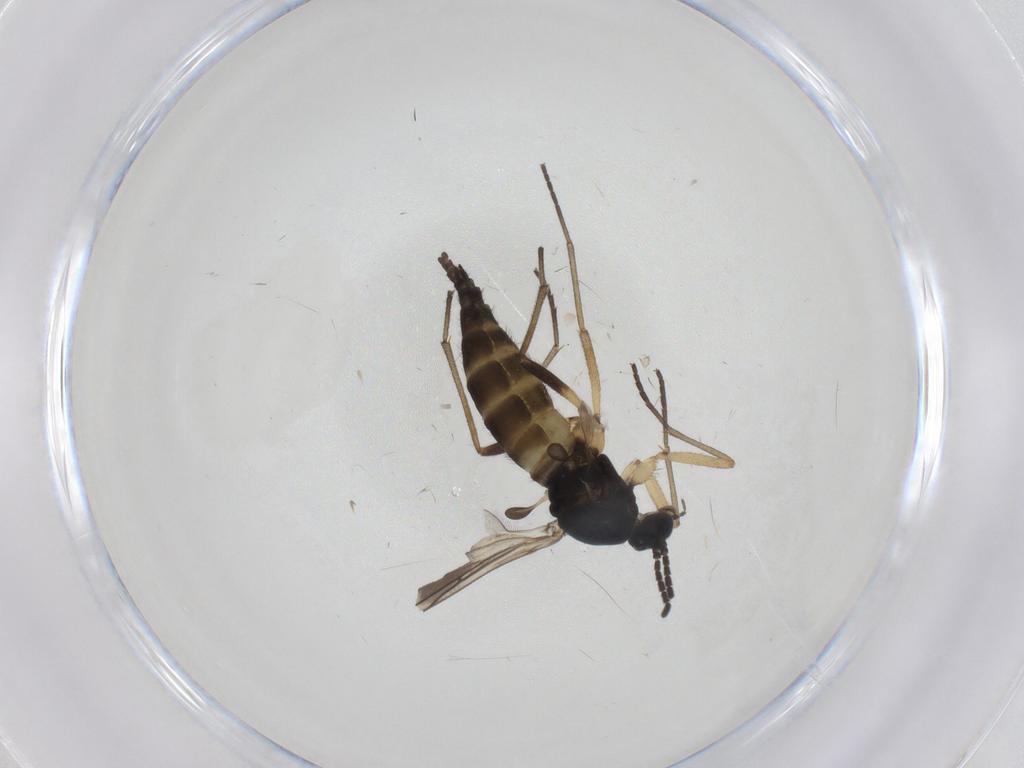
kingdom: Animalia
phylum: Arthropoda
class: Insecta
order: Diptera
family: Sciaridae
